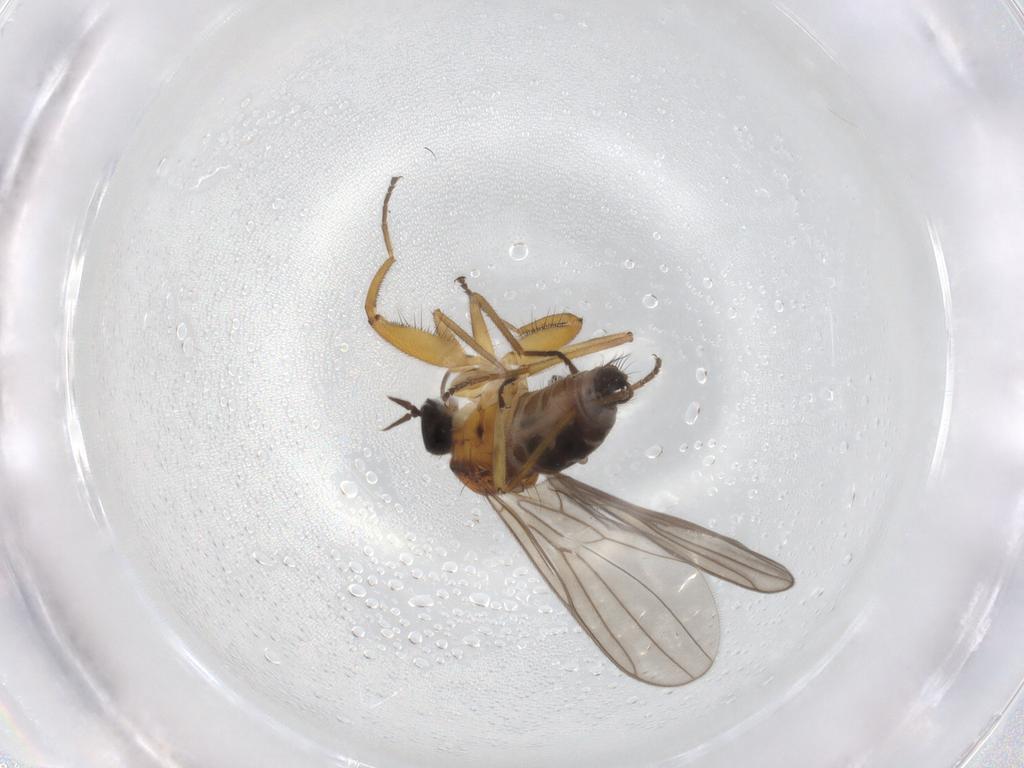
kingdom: Animalia
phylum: Arthropoda
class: Insecta
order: Diptera
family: Hybotidae
